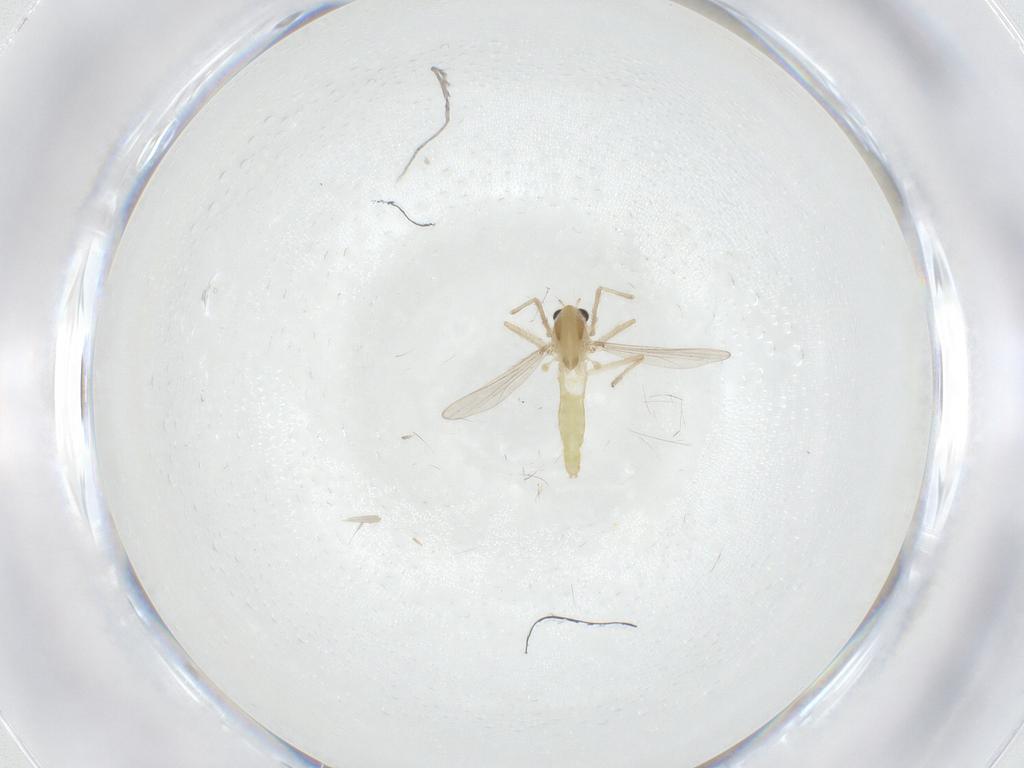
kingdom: Animalia
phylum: Arthropoda
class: Insecta
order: Diptera
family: Chironomidae
